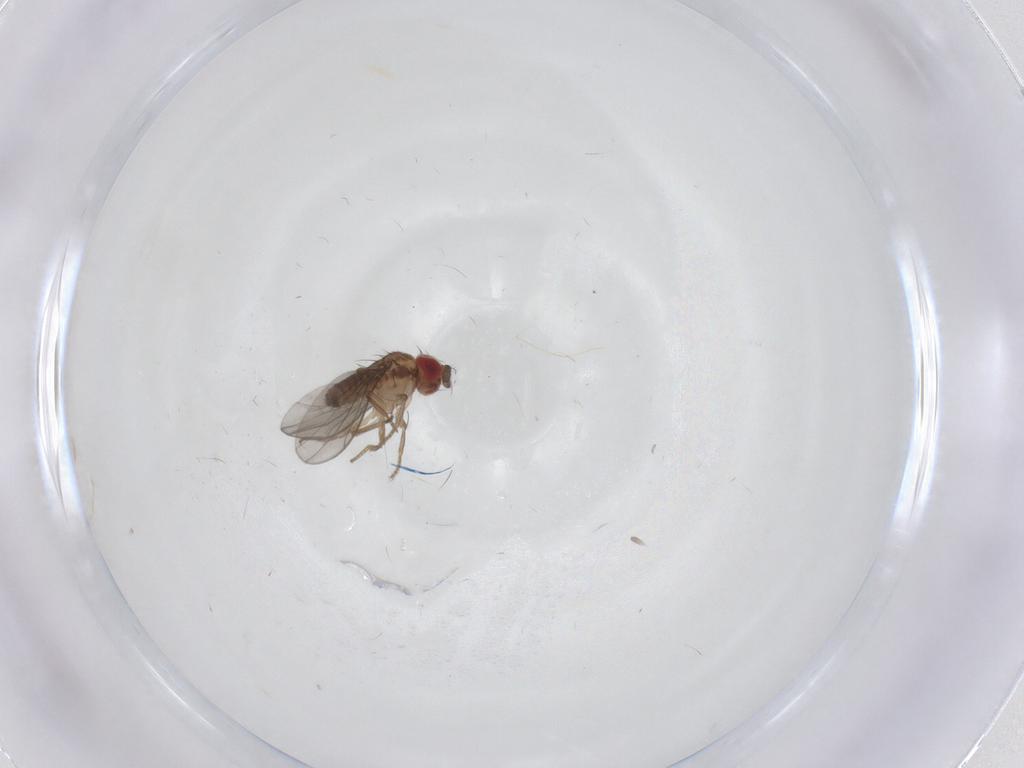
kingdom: Animalia
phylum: Arthropoda
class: Insecta
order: Diptera
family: Drosophilidae
